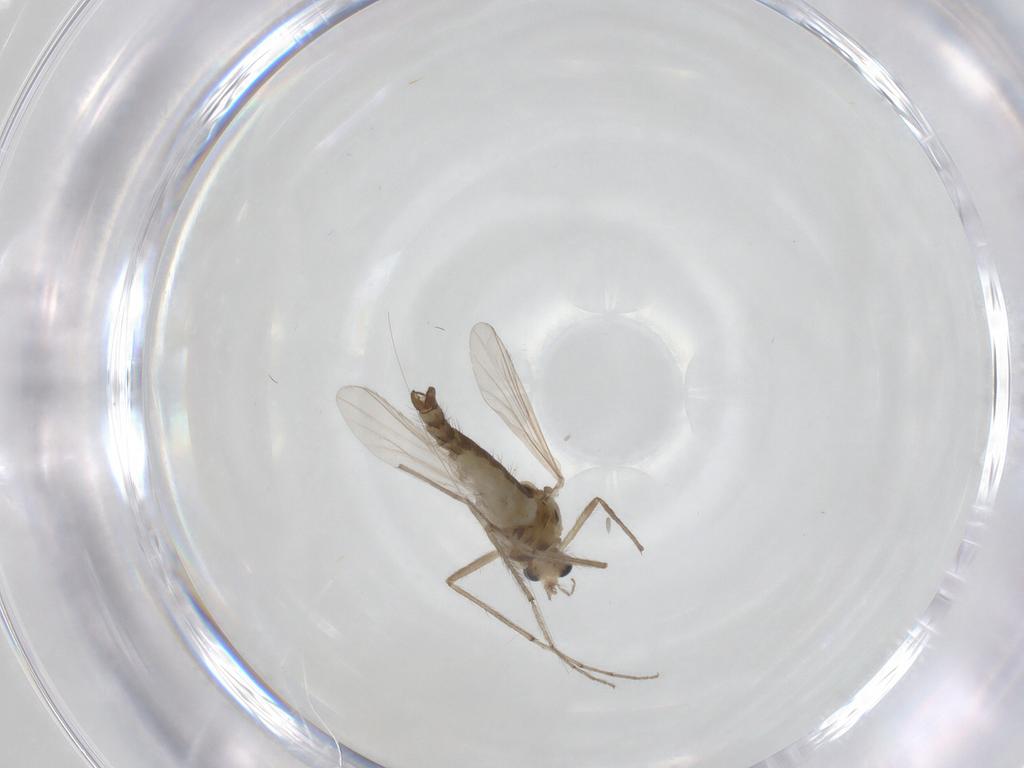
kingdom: Animalia
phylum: Arthropoda
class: Insecta
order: Diptera
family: Chironomidae
